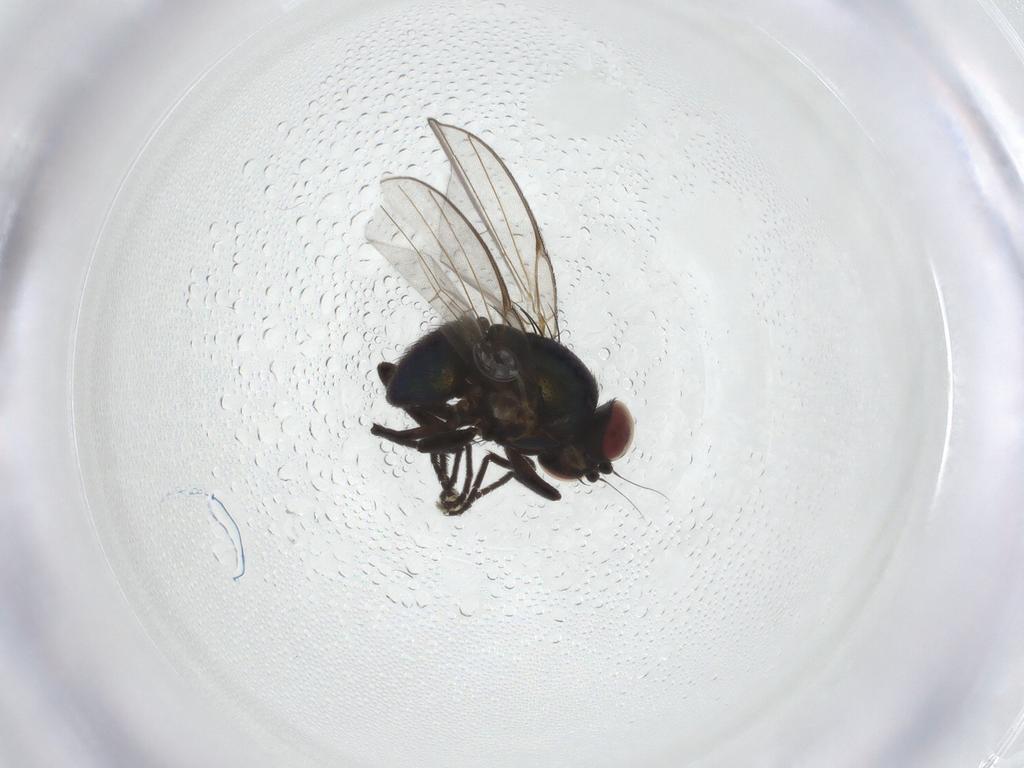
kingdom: Animalia
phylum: Arthropoda
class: Insecta
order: Diptera
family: Agromyzidae
